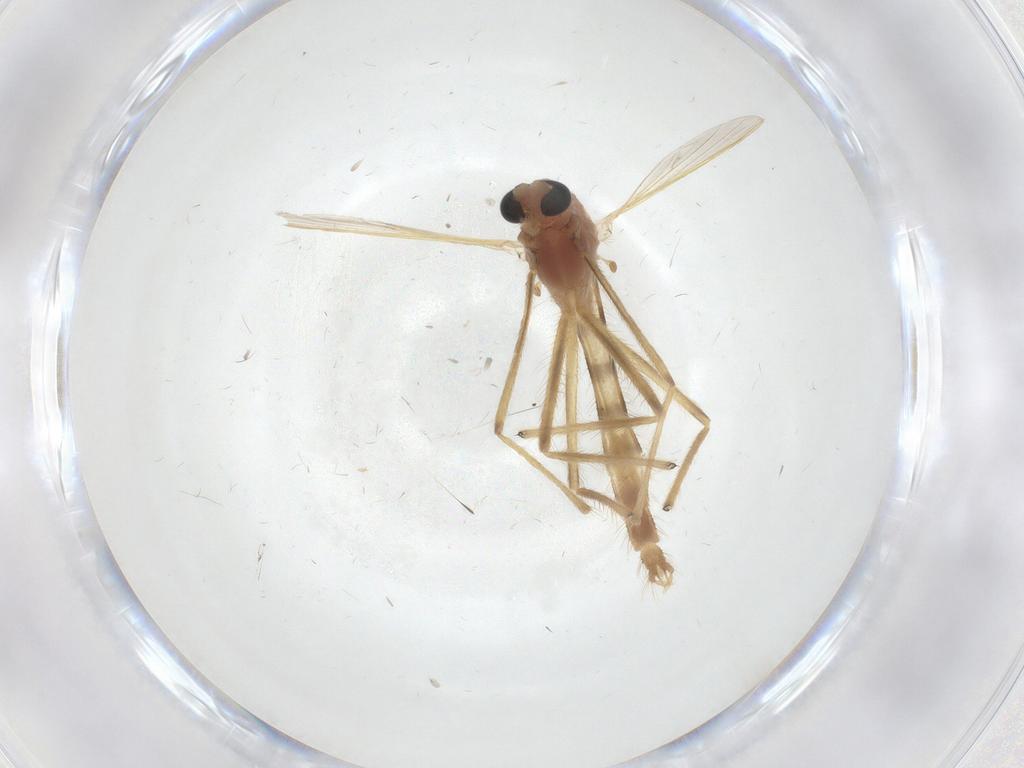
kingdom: Animalia
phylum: Arthropoda
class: Insecta
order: Diptera
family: Chironomidae
